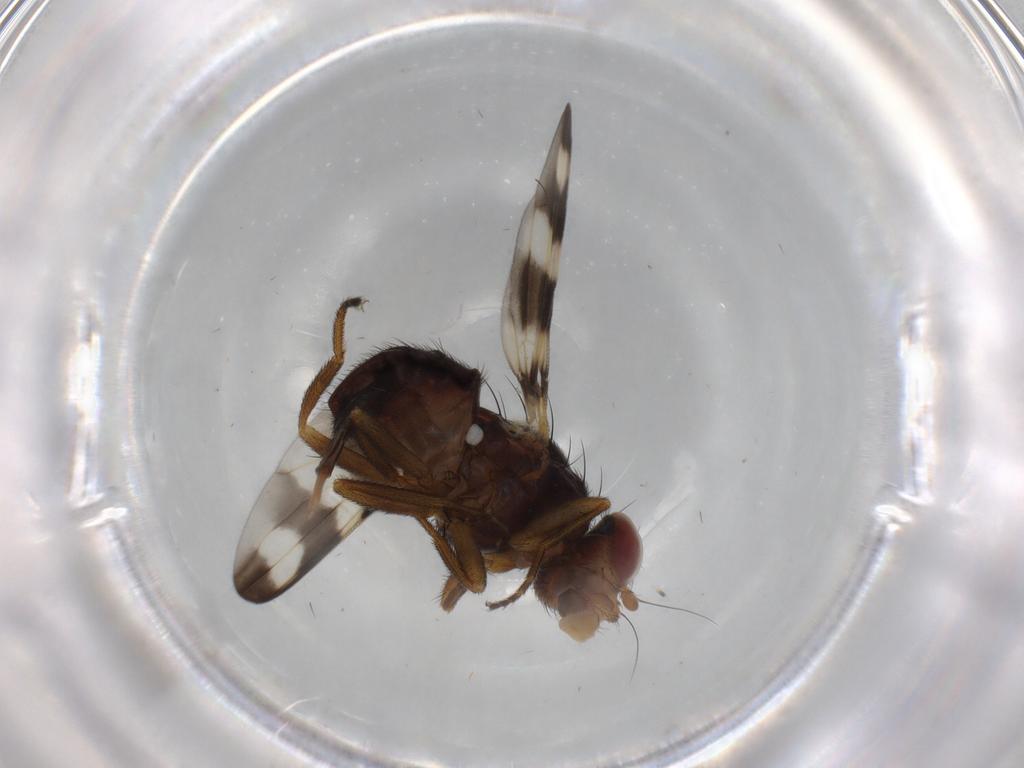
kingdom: Animalia
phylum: Arthropoda
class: Insecta
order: Diptera
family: Ulidiidae
